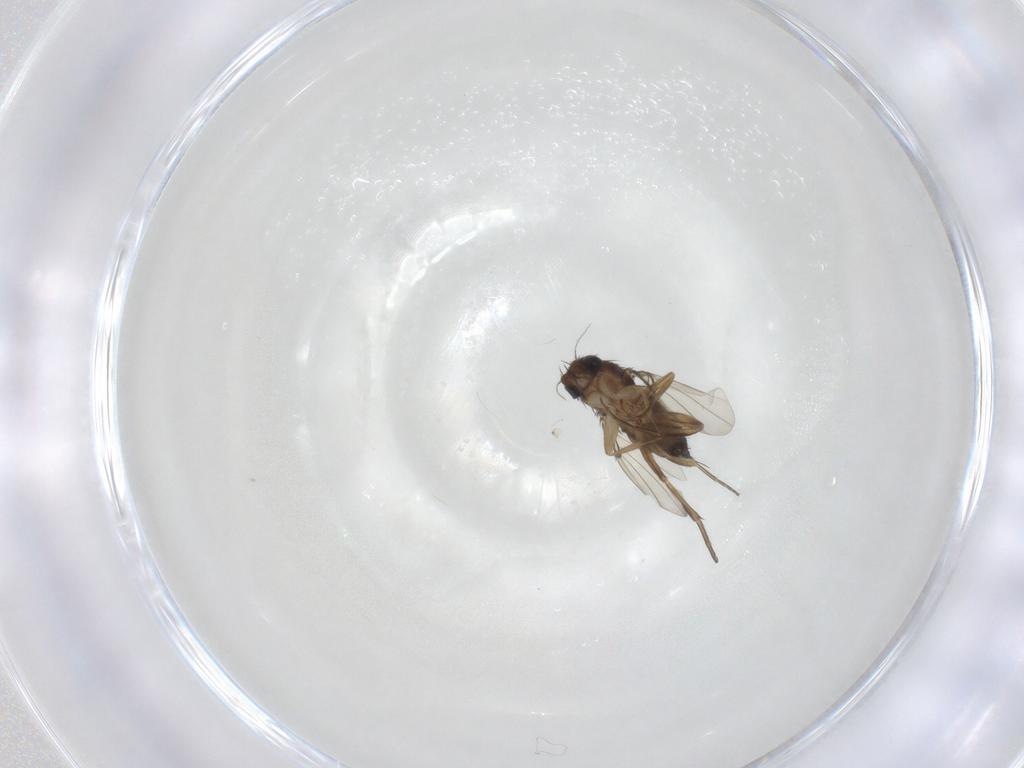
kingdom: Animalia
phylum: Arthropoda
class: Insecta
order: Diptera
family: Phoridae
